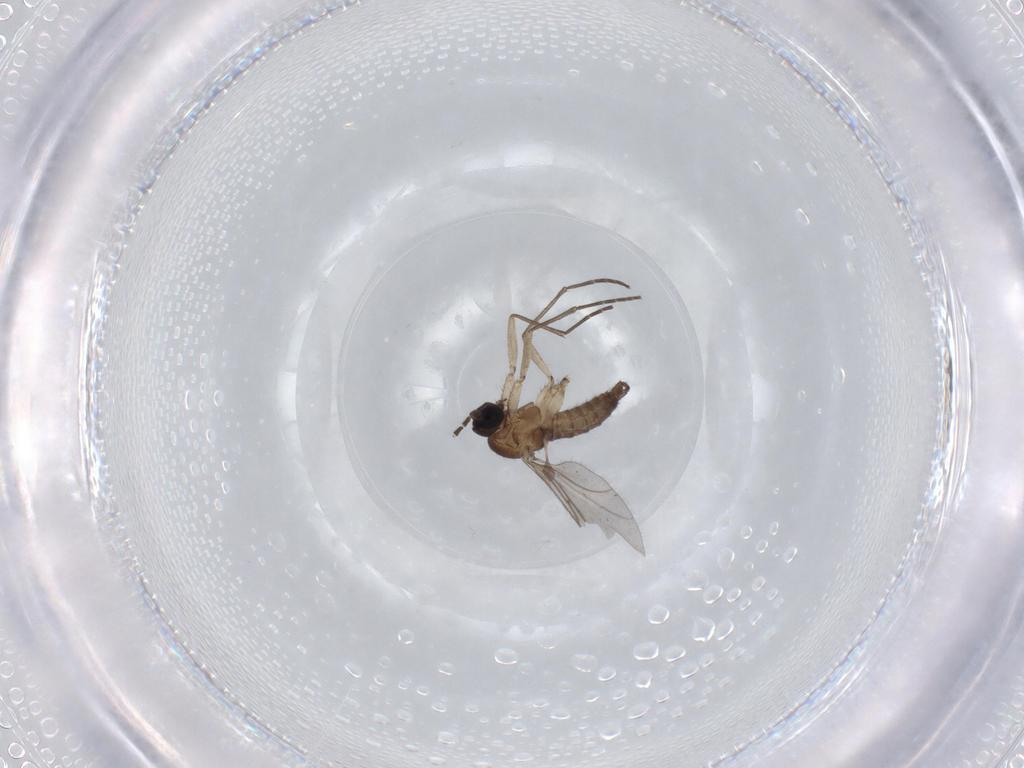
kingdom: Animalia
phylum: Arthropoda
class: Insecta
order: Diptera
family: Sciaridae
